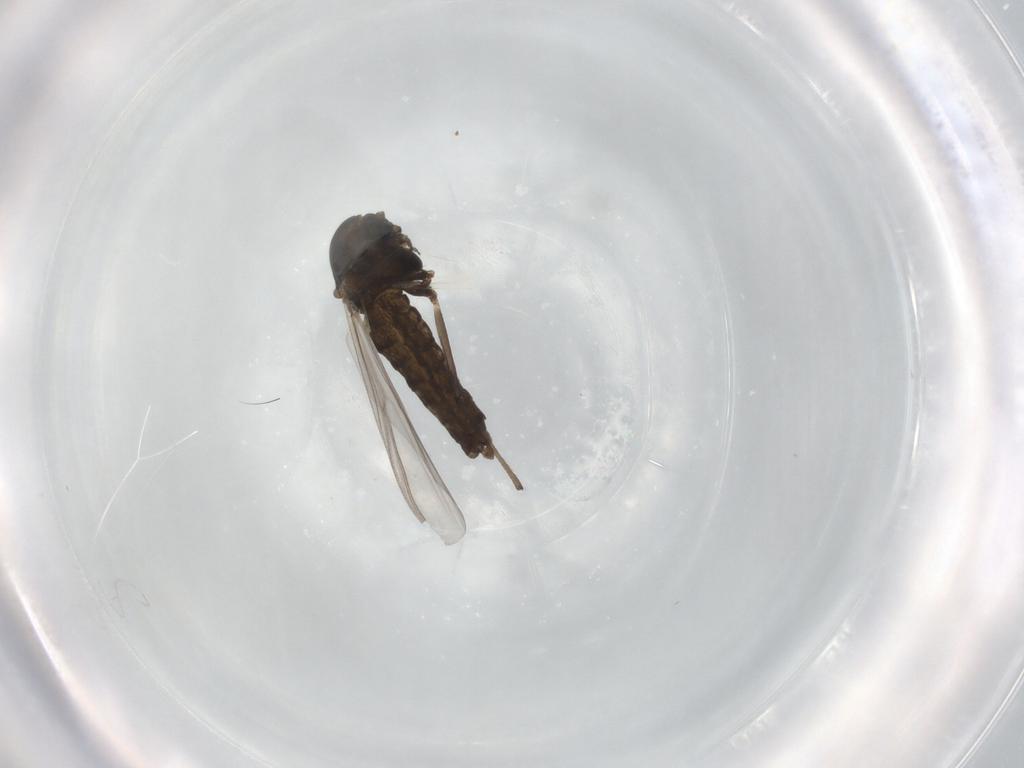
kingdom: Animalia
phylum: Arthropoda
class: Insecta
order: Diptera
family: Chironomidae
